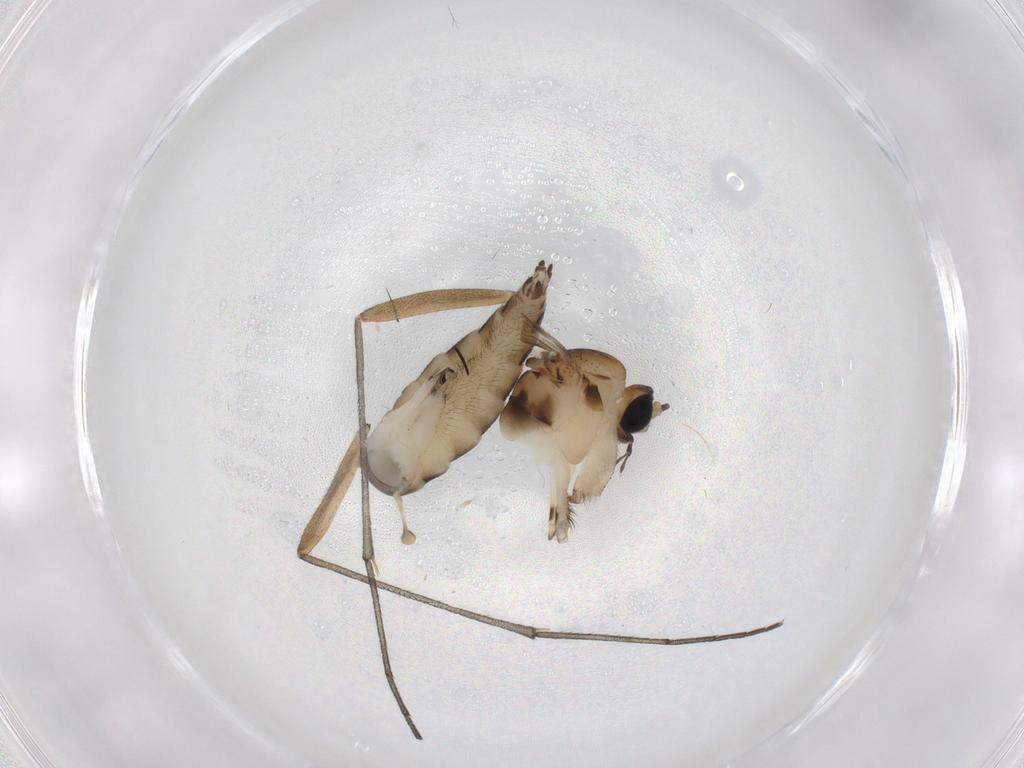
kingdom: Animalia
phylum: Arthropoda
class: Insecta
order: Diptera
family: Sciaridae
